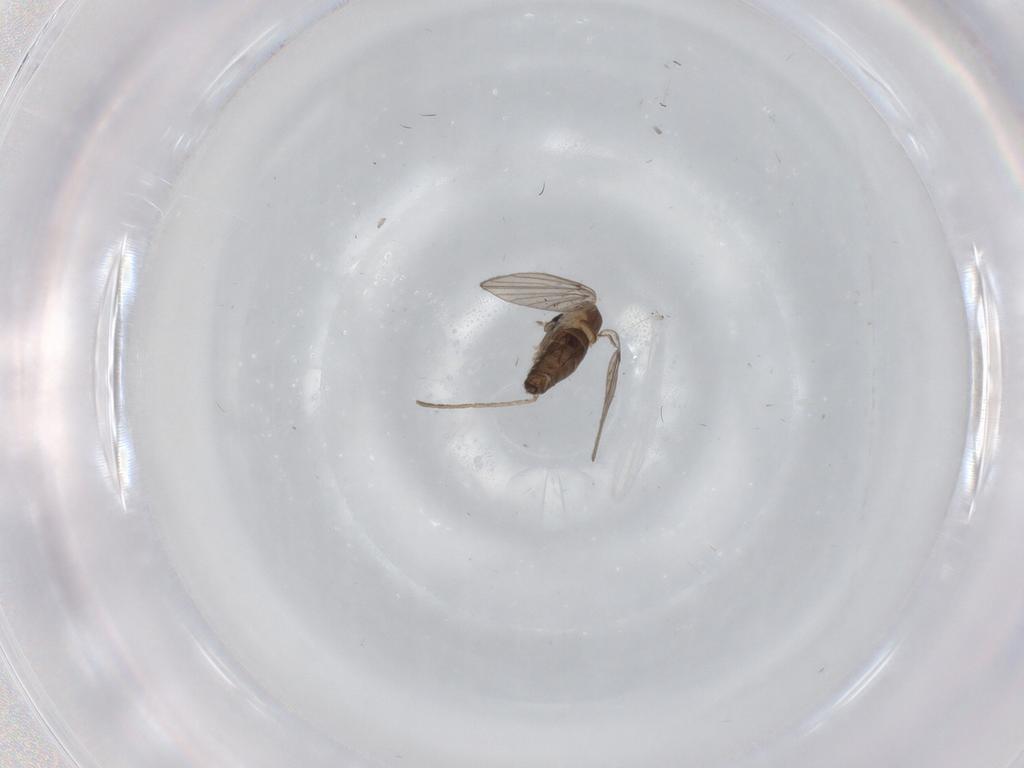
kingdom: Animalia
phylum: Arthropoda
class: Insecta
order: Diptera
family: Cecidomyiidae
